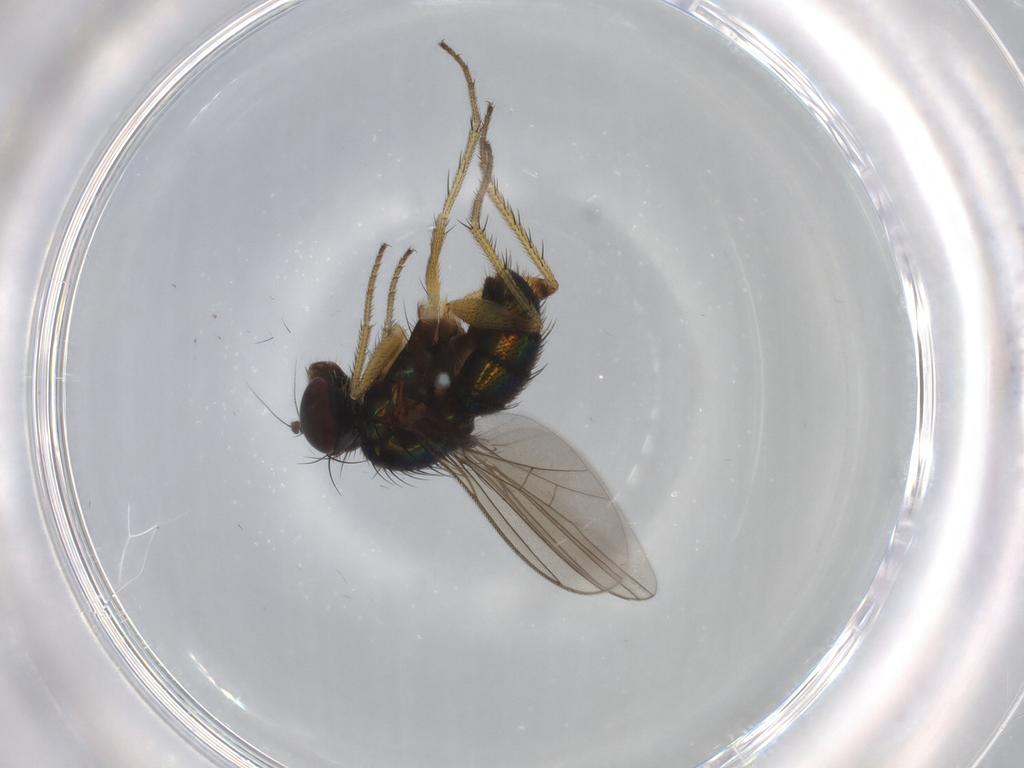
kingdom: Animalia
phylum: Arthropoda
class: Insecta
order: Diptera
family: Dolichopodidae
